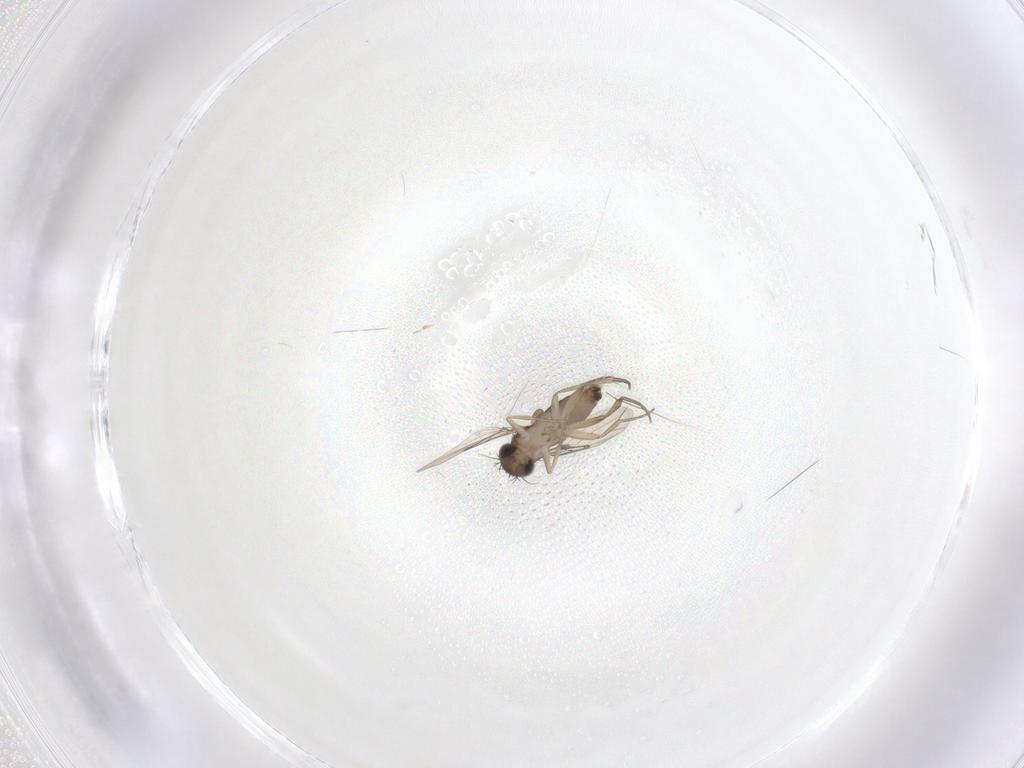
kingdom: Animalia
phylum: Arthropoda
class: Insecta
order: Diptera
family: Phoridae
